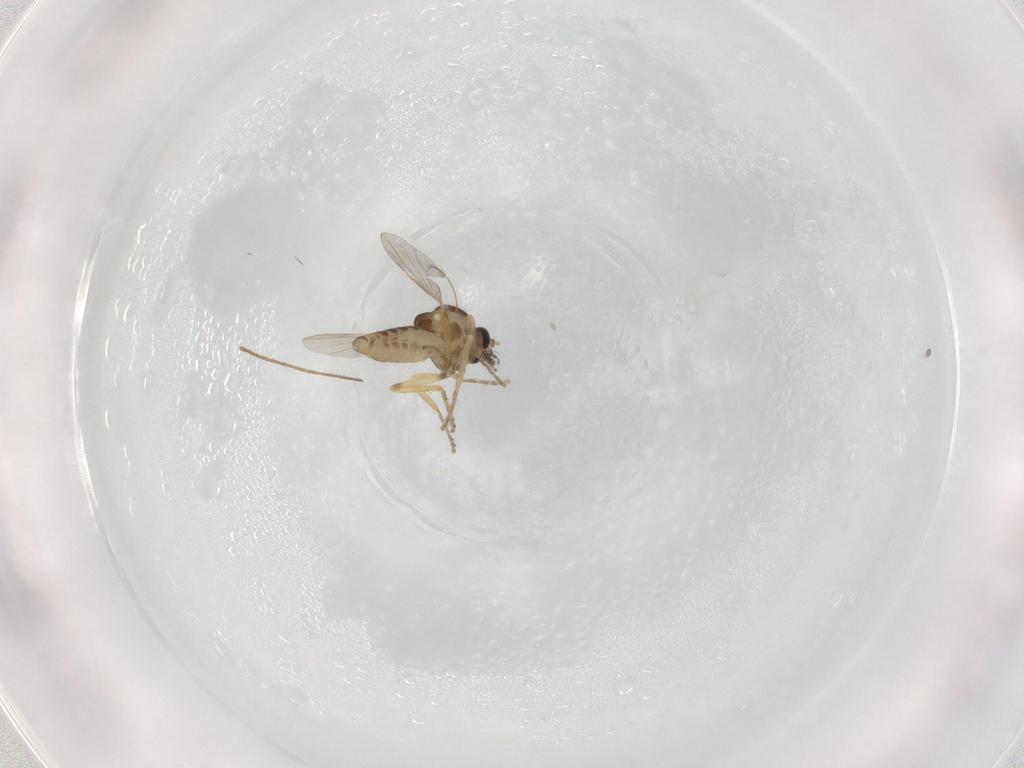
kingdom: Animalia
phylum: Arthropoda
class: Insecta
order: Diptera
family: Ceratopogonidae
